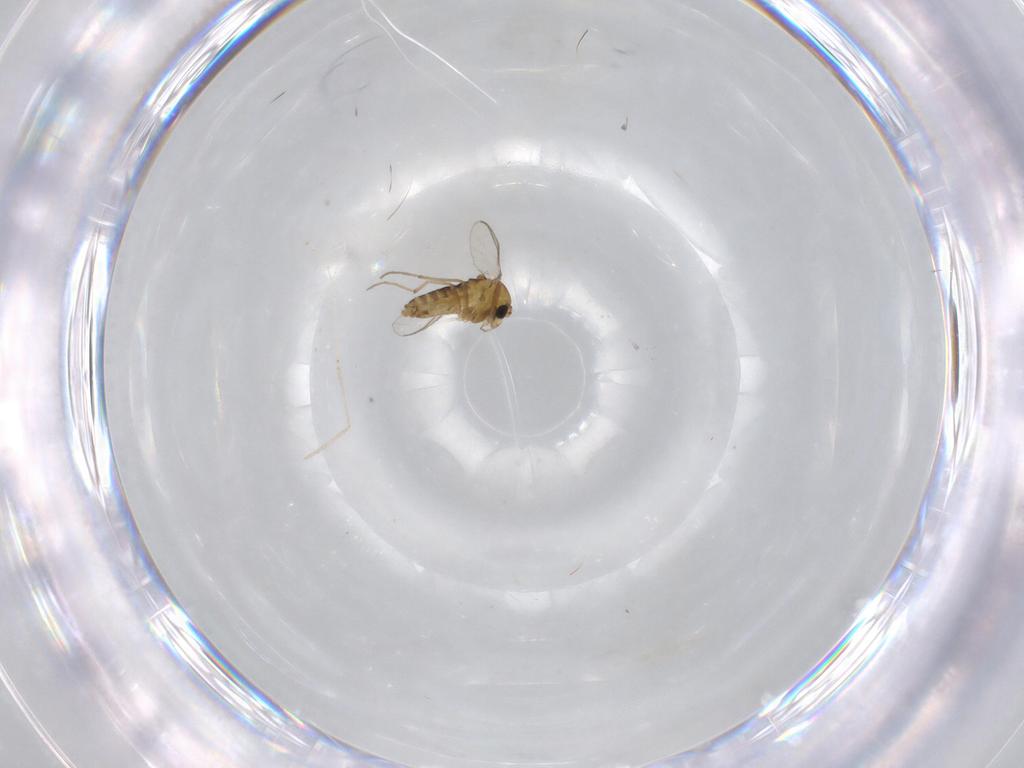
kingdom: Animalia
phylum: Arthropoda
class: Insecta
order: Diptera
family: Chironomidae
